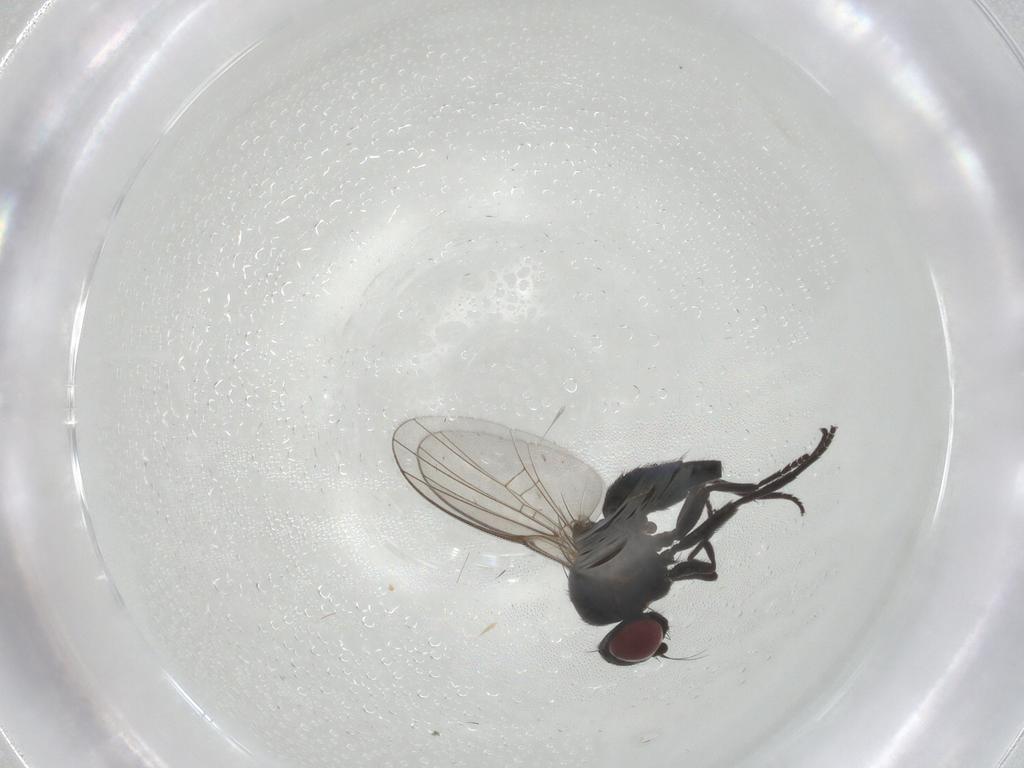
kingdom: Animalia
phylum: Arthropoda
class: Insecta
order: Diptera
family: Agromyzidae
